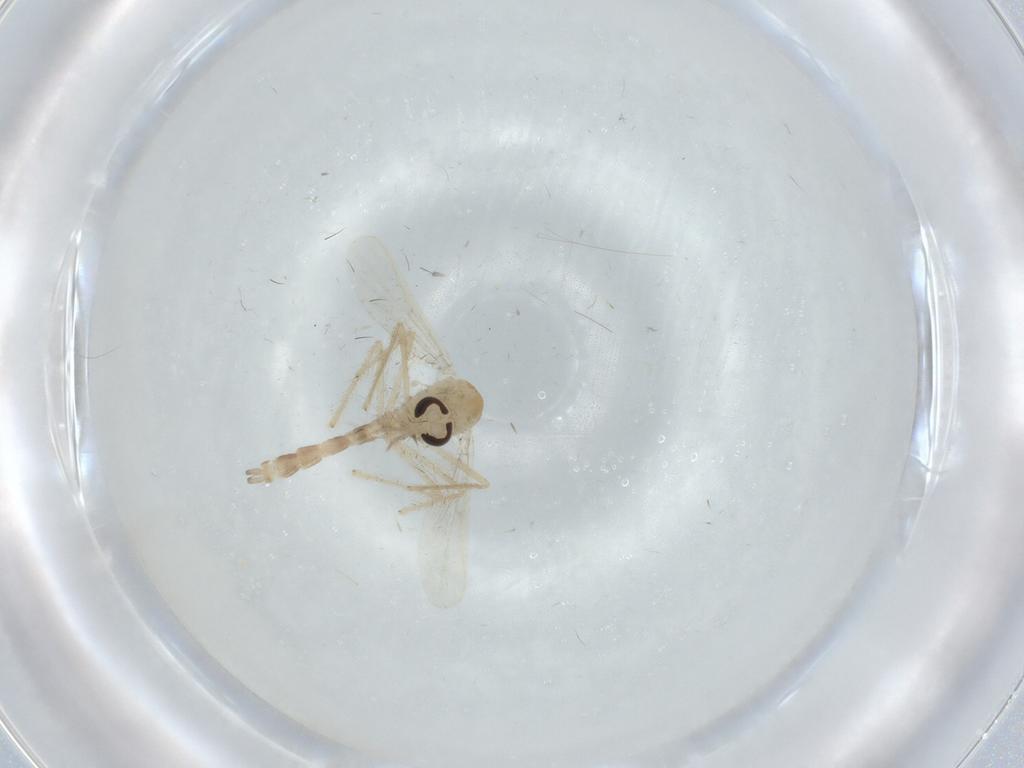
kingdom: Animalia
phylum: Arthropoda
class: Insecta
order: Diptera
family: Chironomidae
